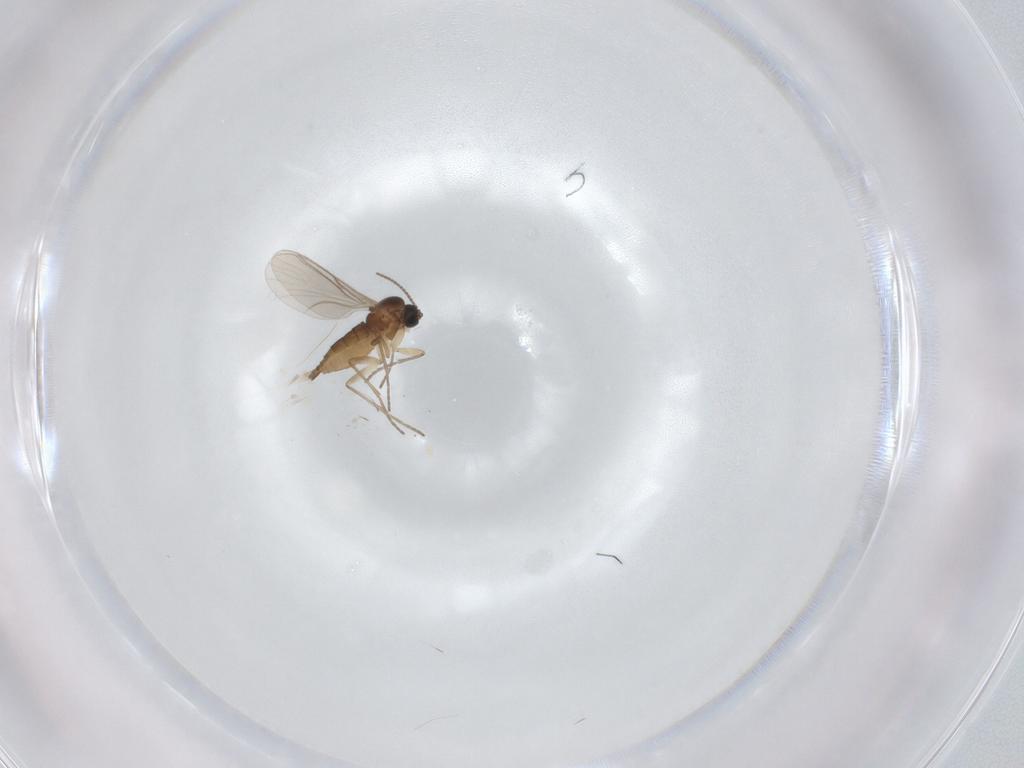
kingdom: Animalia
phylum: Arthropoda
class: Insecta
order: Diptera
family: Sciaridae
